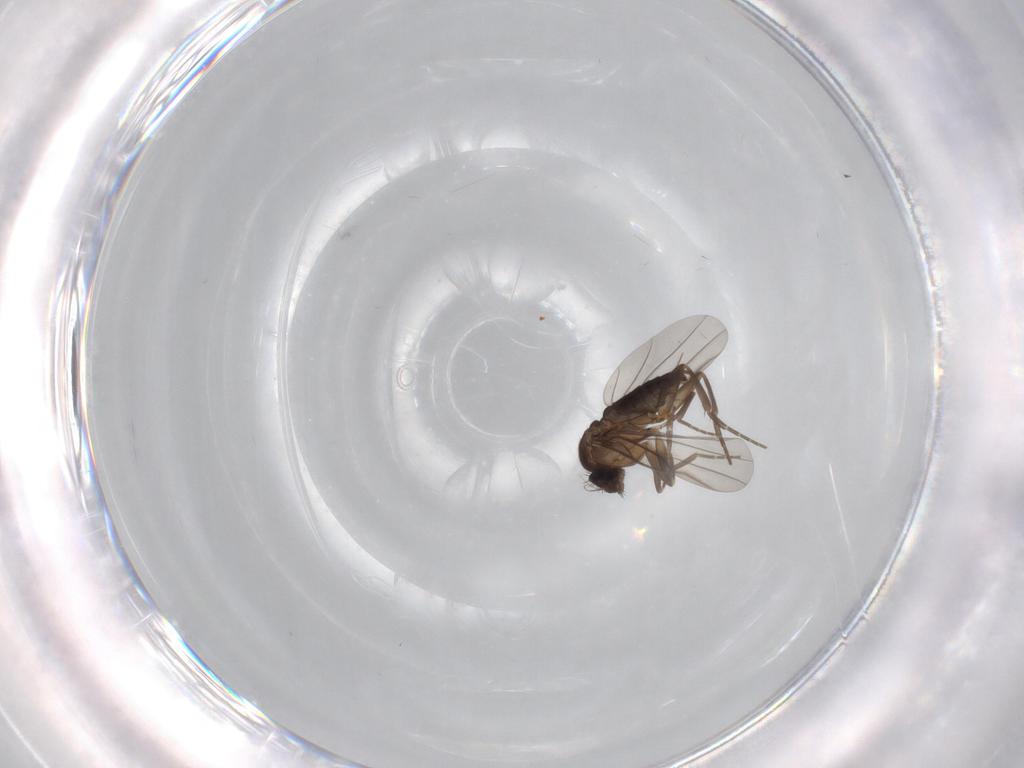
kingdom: Animalia
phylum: Arthropoda
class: Insecta
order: Diptera
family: Phoridae
